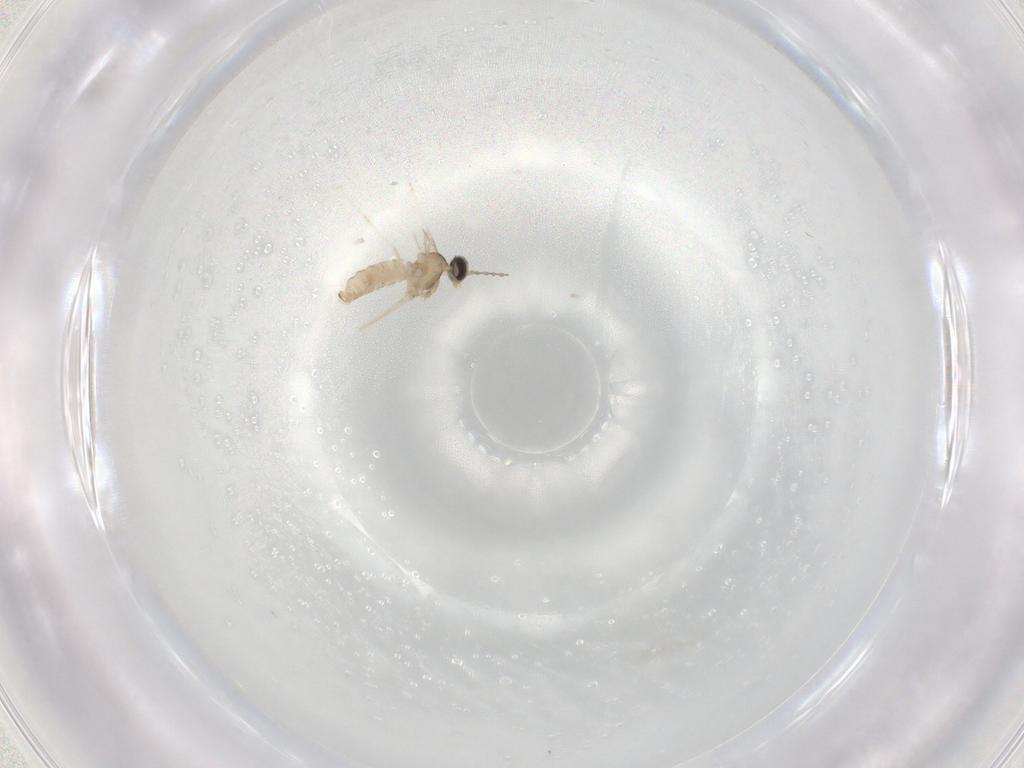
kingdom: Animalia
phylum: Arthropoda
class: Insecta
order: Diptera
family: Cecidomyiidae
